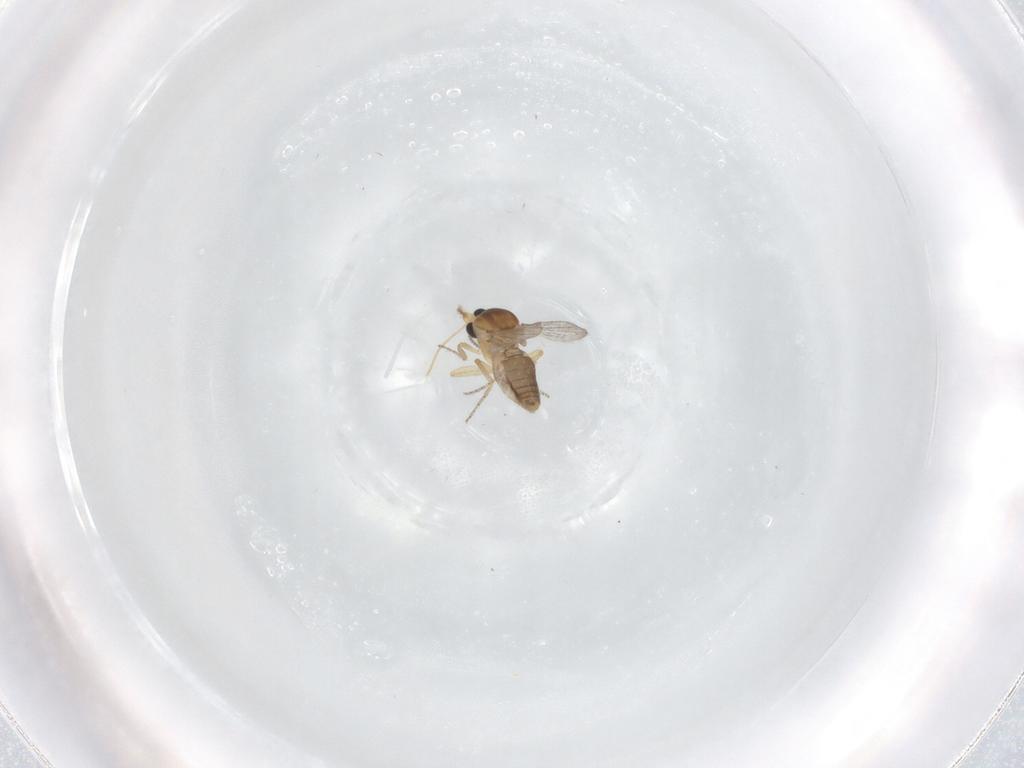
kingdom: Animalia
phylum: Arthropoda
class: Insecta
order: Diptera
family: Ceratopogonidae
